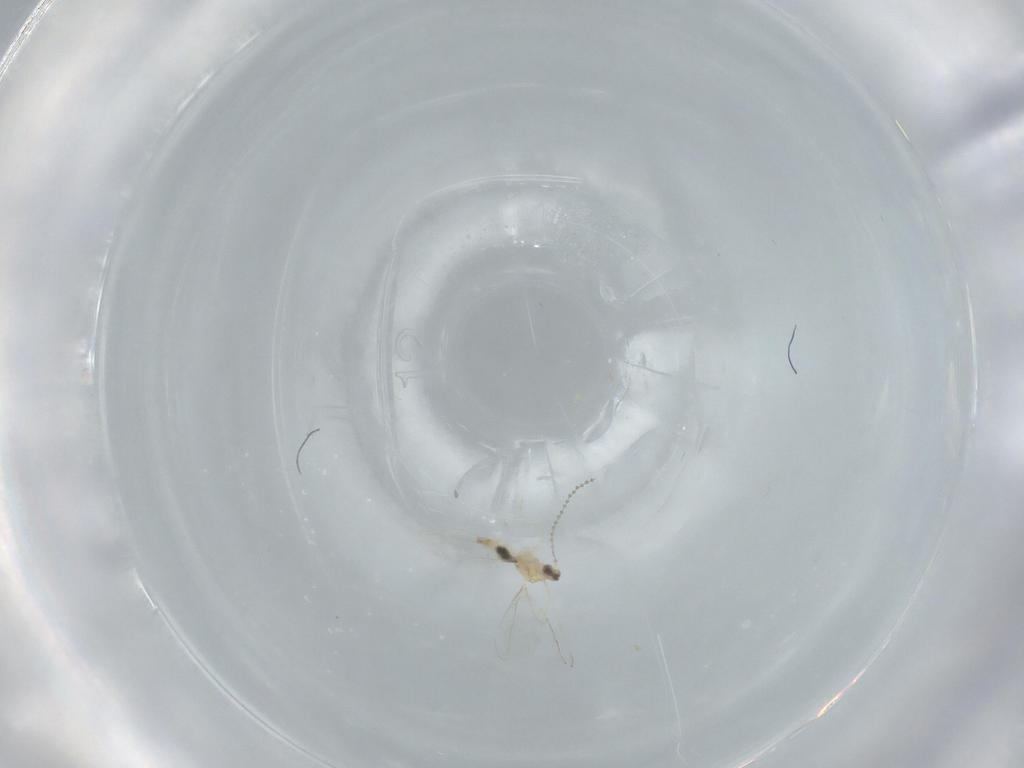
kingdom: Animalia
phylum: Arthropoda
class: Insecta
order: Diptera
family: Cecidomyiidae
